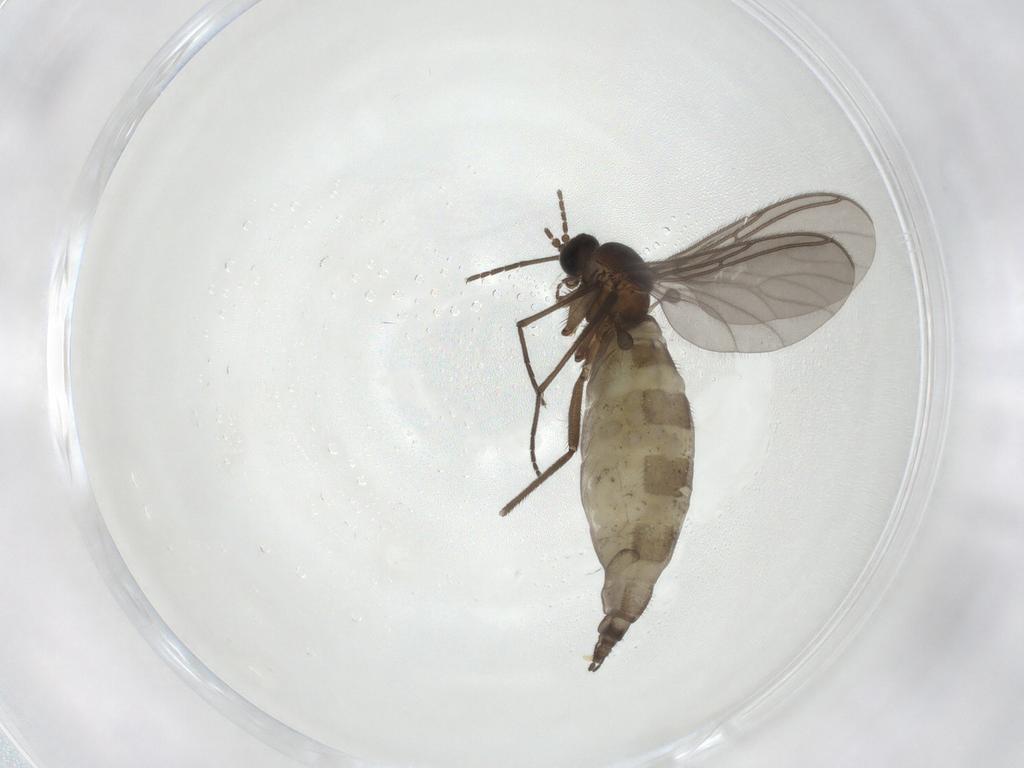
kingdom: Animalia
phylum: Arthropoda
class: Insecta
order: Diptera
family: Sciaridae
